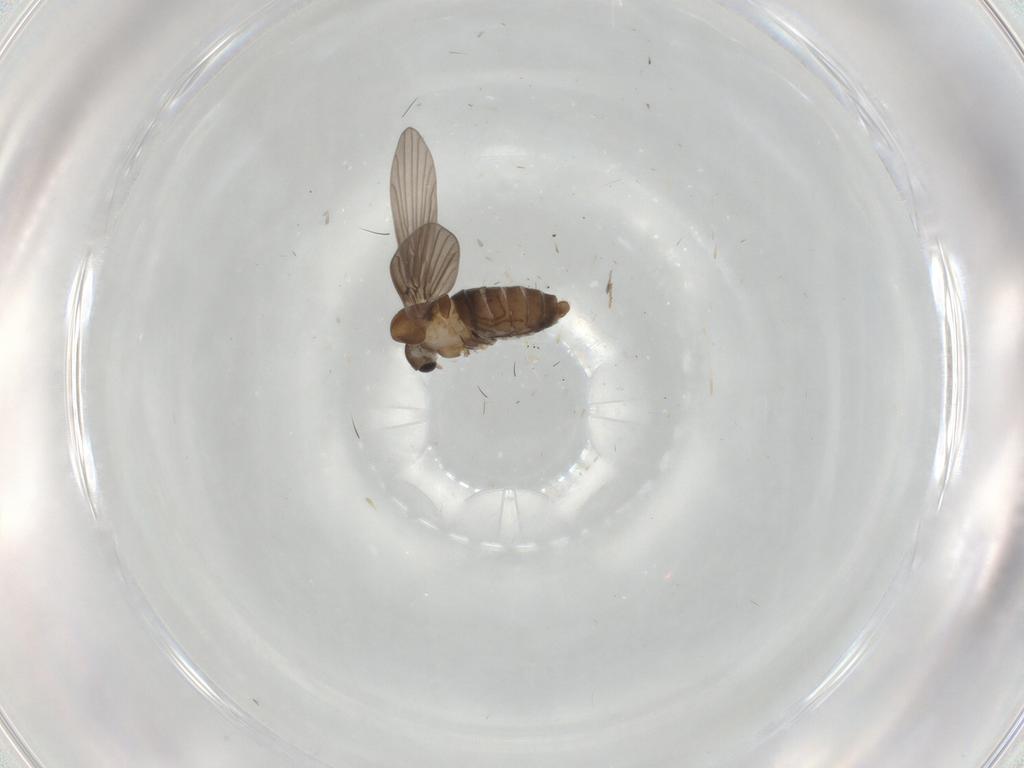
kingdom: Animalia
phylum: Arthropoda
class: Insecta
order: Diptera
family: Psychodidae
